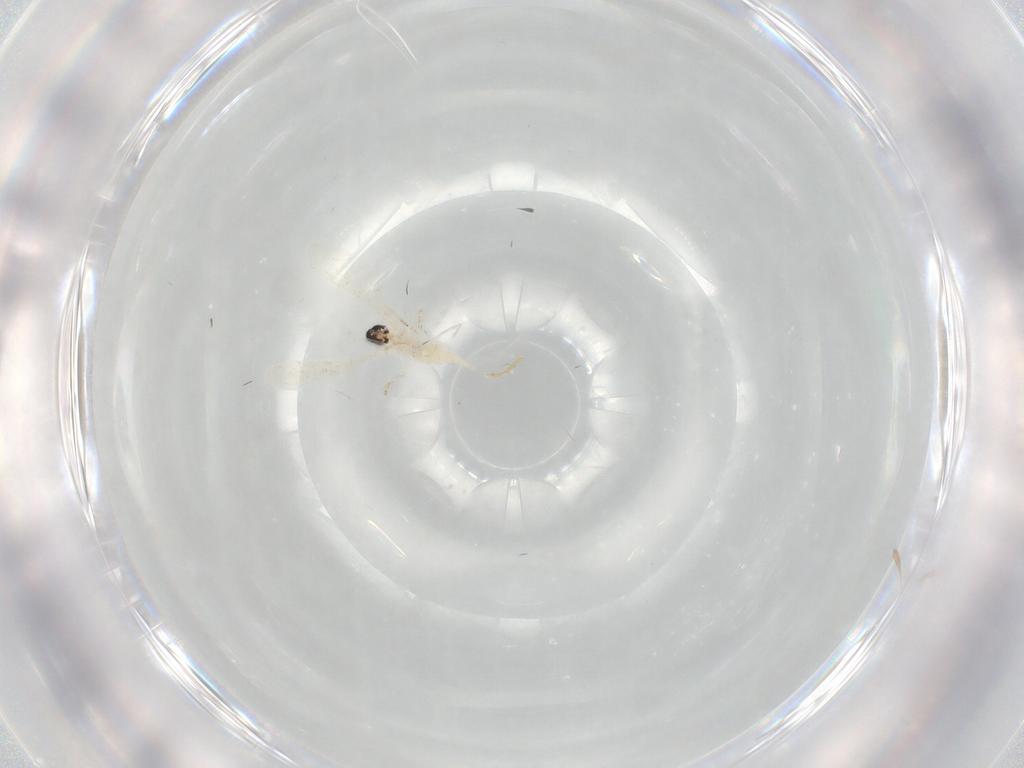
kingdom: Animalia
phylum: Arthropoda
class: Insecta
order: Diptera
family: Cecidomyiidae
